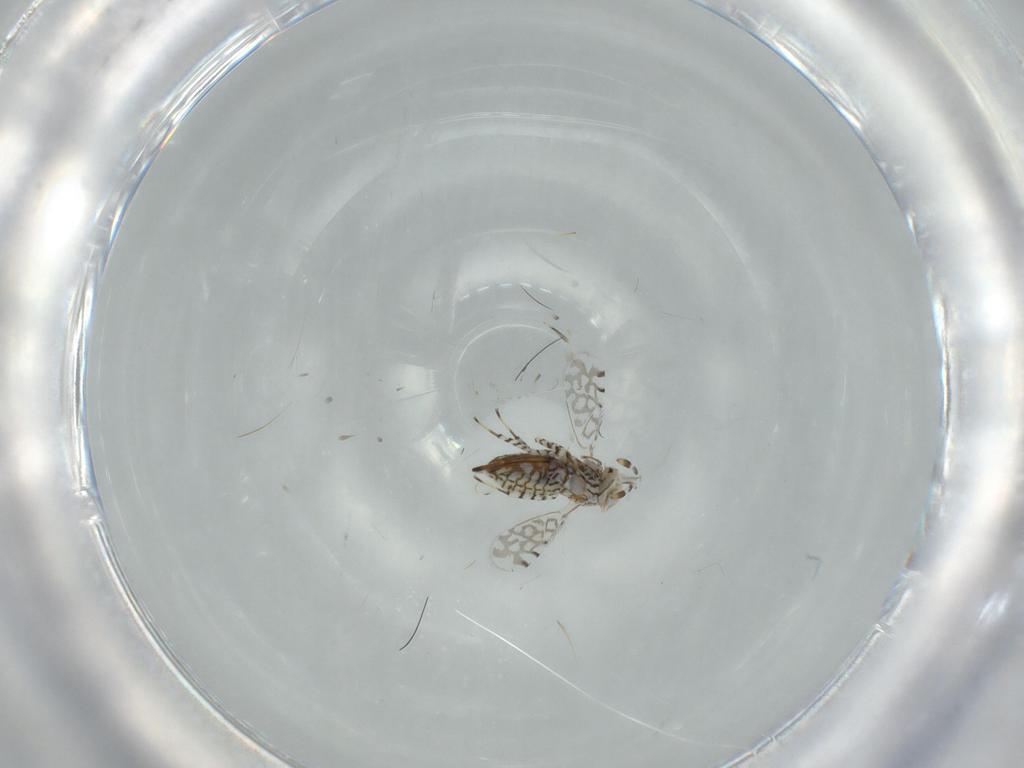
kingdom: Animalia
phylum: Arthropoda
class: Insecta
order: Hymenoptera
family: Aphelinidae
